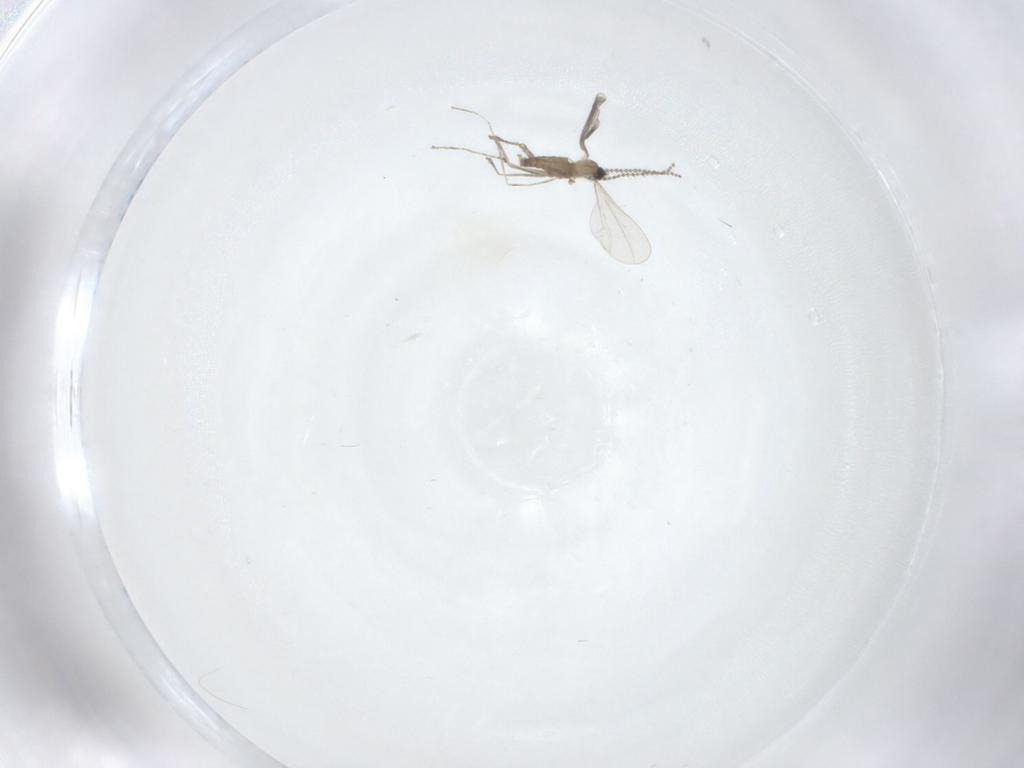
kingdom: Animalia
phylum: Arthropoda
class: Insecta
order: Diptera
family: Cecidomyiidae
